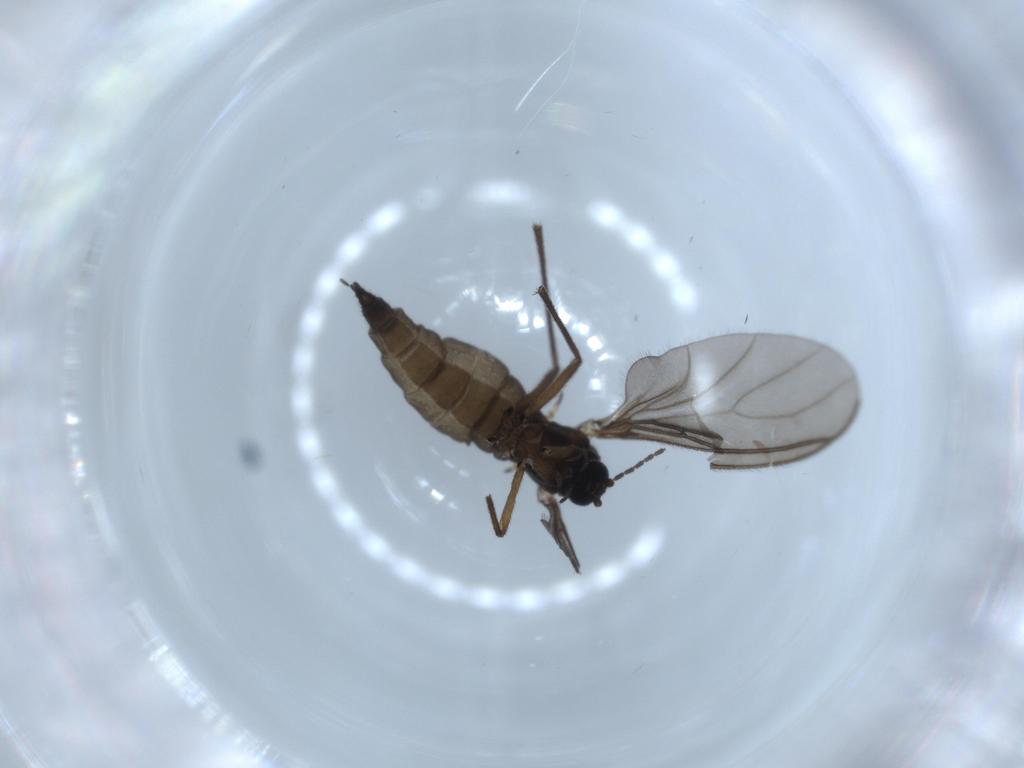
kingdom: Animalia
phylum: Arthropoda
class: Insecta
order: Diptera
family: Sciaridae
